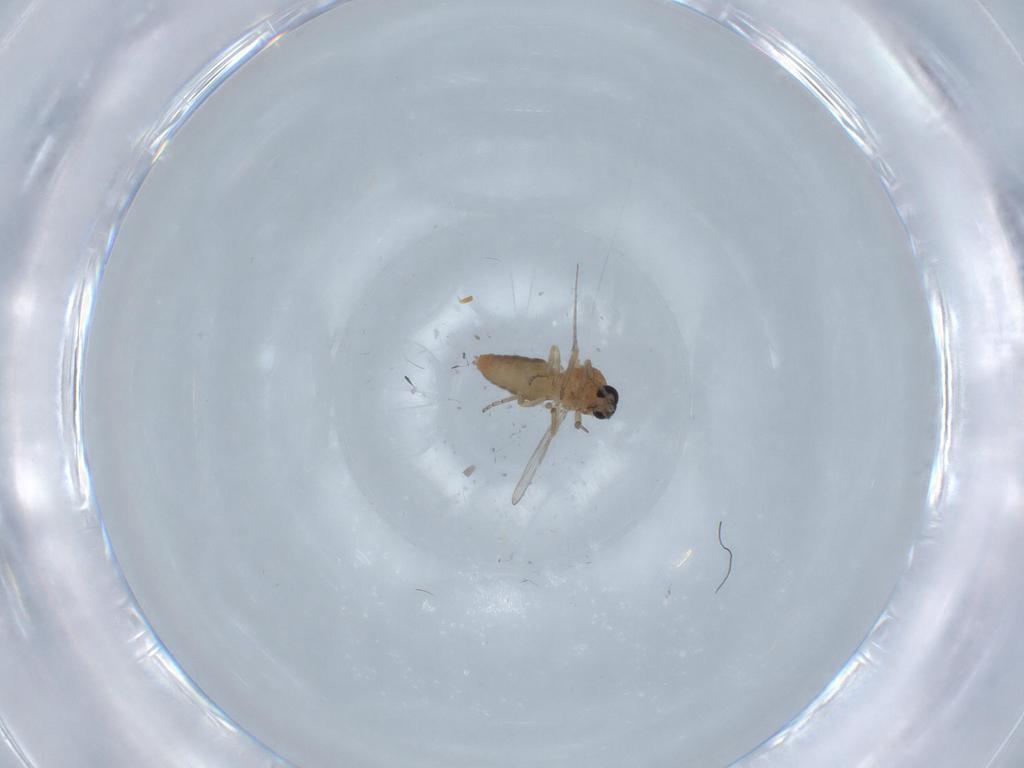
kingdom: Animalia
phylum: Arthropoda
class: Insecta
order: Diptera
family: Ceratopogonidae
